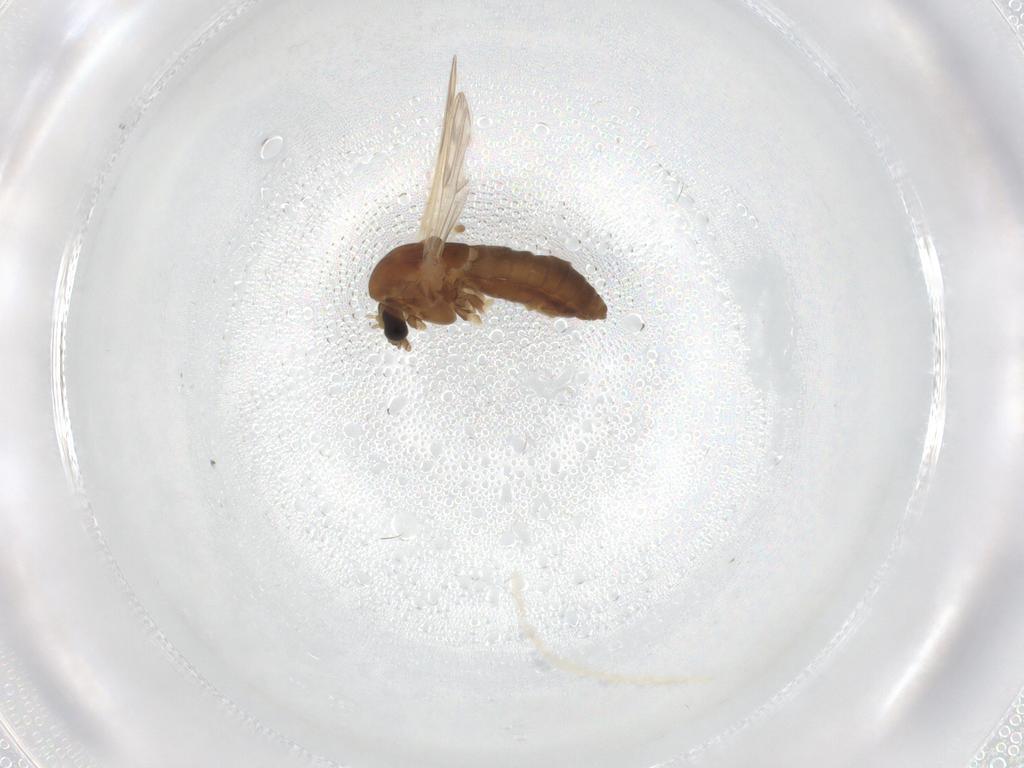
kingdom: Animalia
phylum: Arthropoda
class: Insecta
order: Diptera
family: Chironomidae
